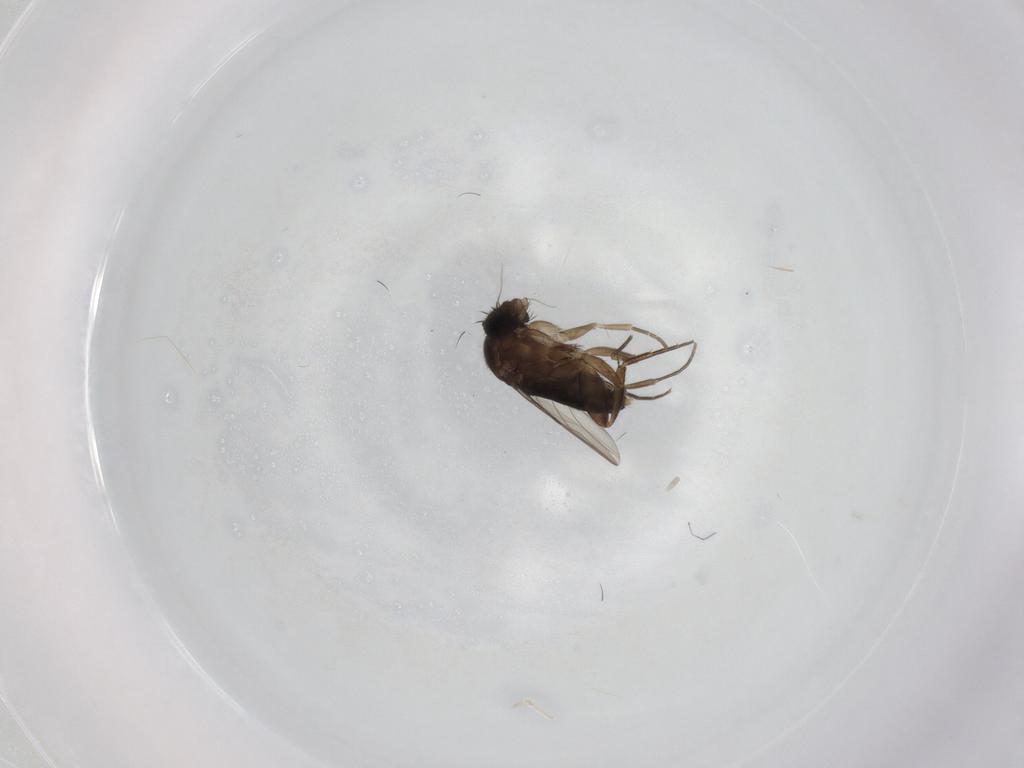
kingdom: Animalia
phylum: Arthropoda
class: Insecta
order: Diptera
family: Phoridae
